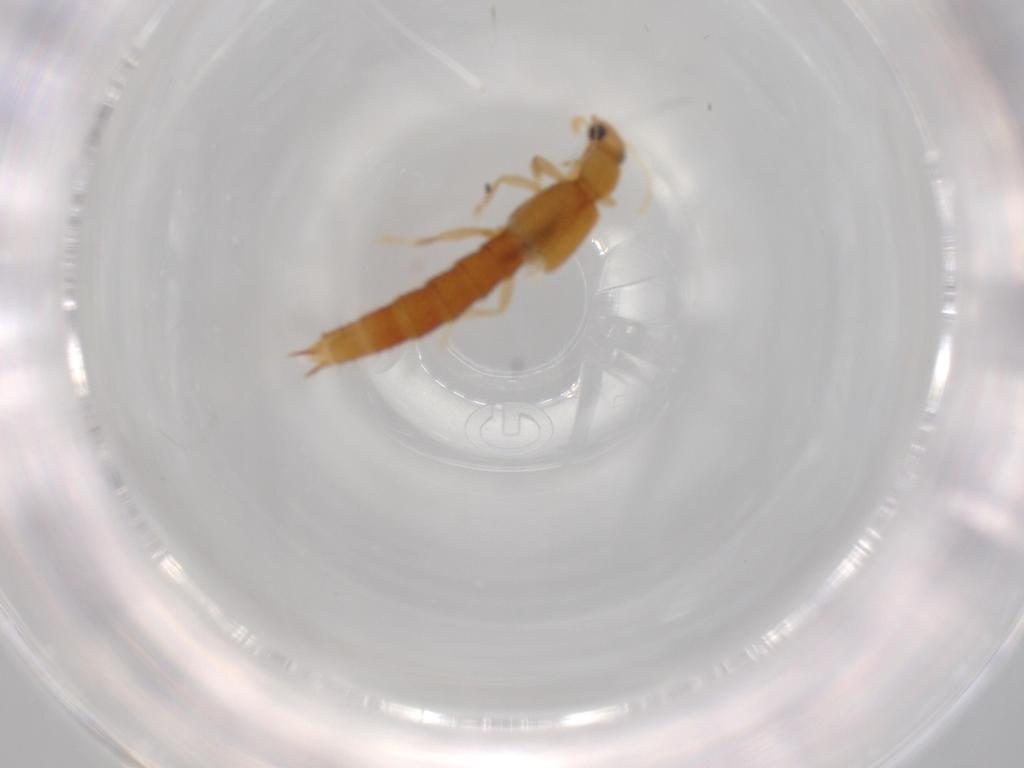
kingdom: Animalia
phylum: Arthropoda
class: Insecta
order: Coleoptera
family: Staphylinidae
